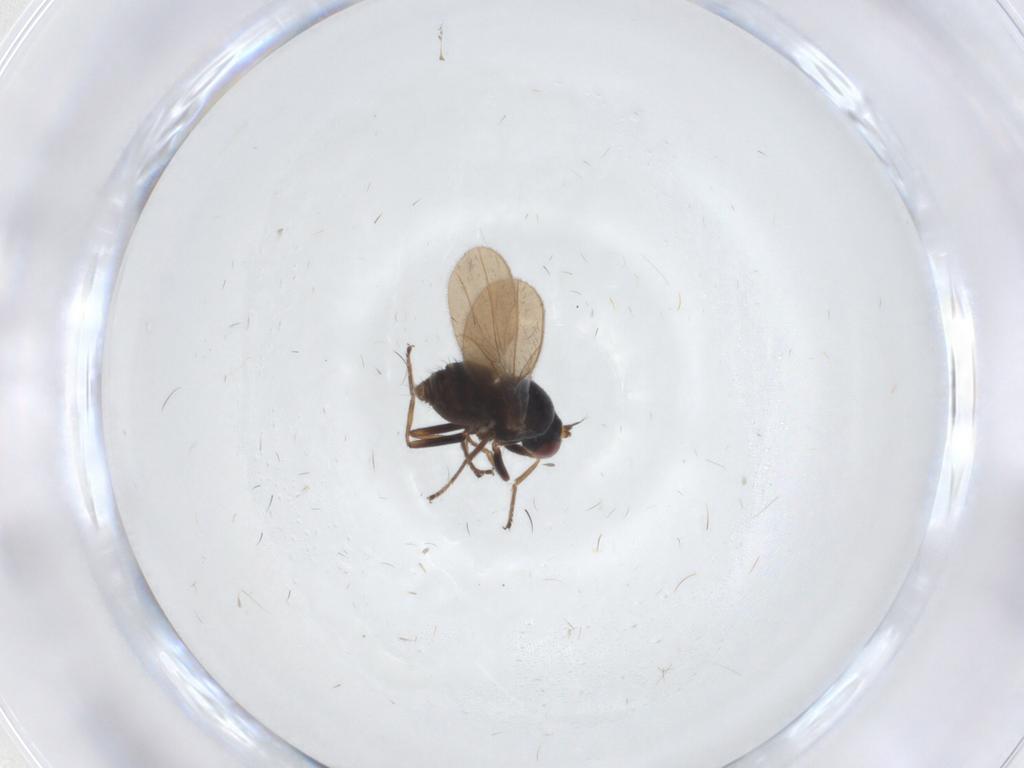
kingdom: Animalia
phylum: Arthropoda
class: Insecta
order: Diptera
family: Ephydridae
